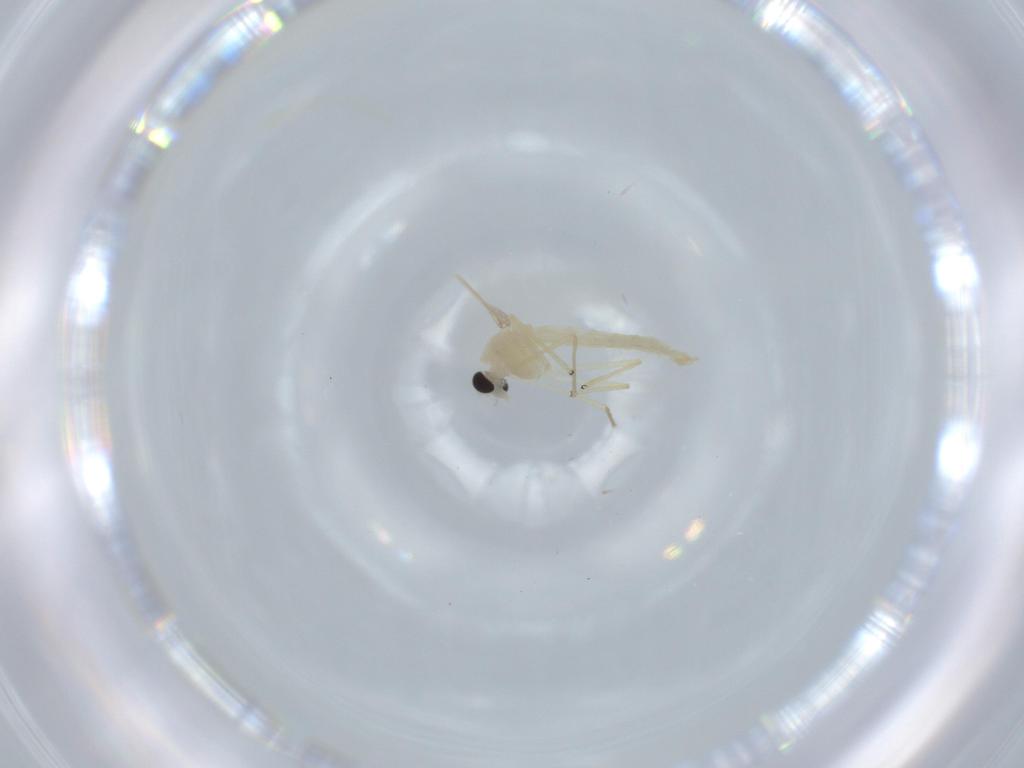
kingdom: Animalia
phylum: Arthropoda
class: Insecta
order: Diptera
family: Chironomidae
